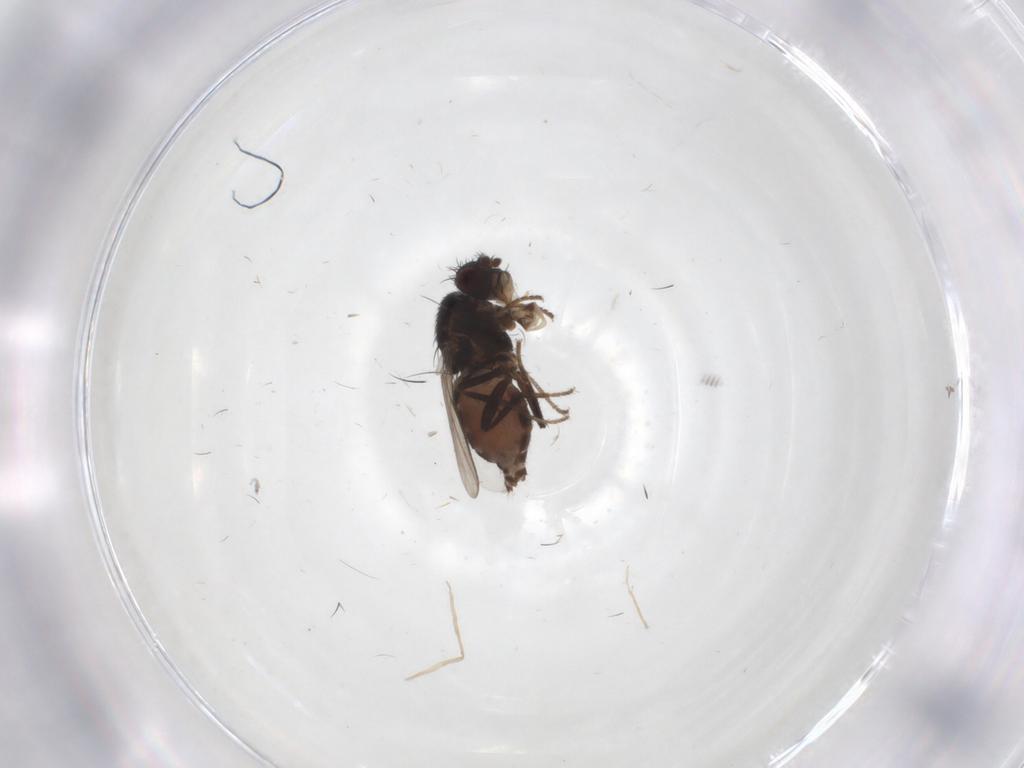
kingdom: Animalia
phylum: Arthropoda
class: Insecta
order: Diptera
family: Sphaeroceridae
